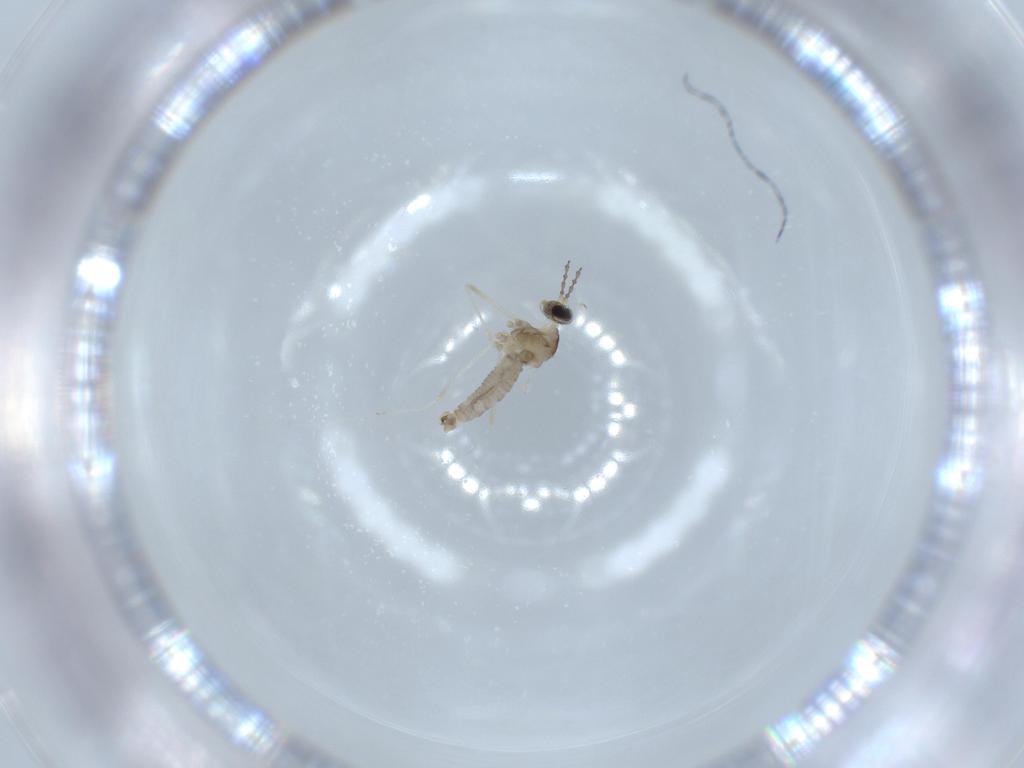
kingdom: Animalia
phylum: Arthropoda
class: Insecta
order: Diptera
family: Cecidomyiidae
